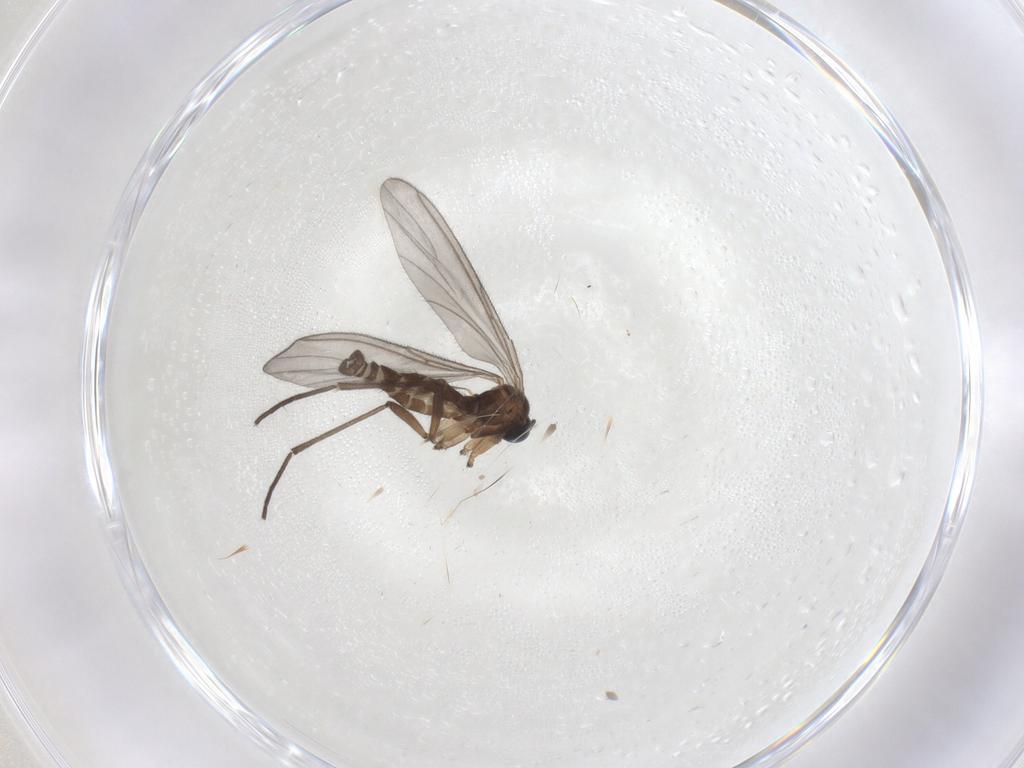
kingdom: Animalia
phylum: Arthropoda
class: Insecta
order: Diptera
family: Sciaridae
